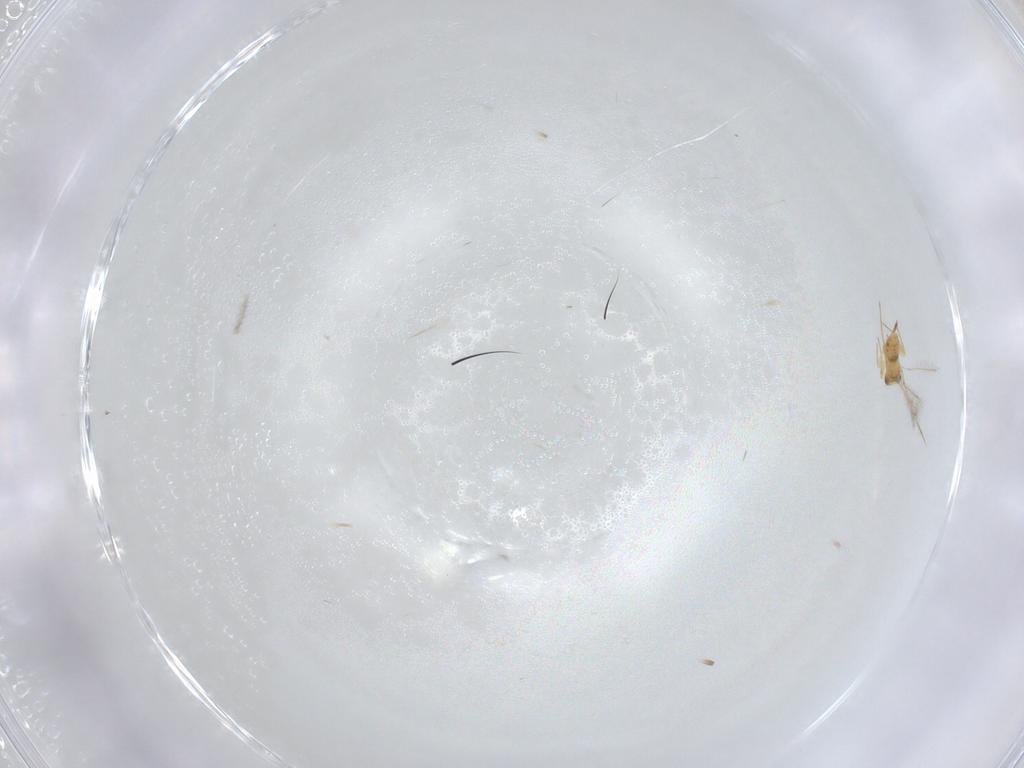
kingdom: Animalia
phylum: Arthropoda
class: Insecta
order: Hymenoptera
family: Mymaridae
